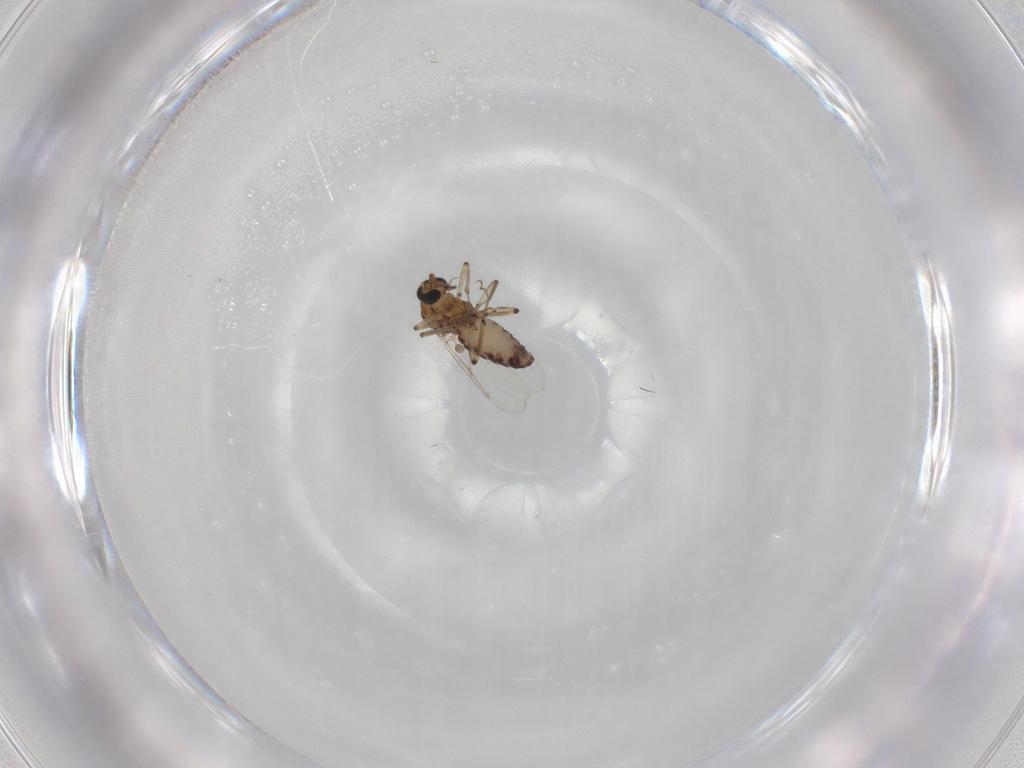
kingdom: Animalia
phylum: Arthropoda
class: Insecta
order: Diptera
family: Ceratopogonidae
